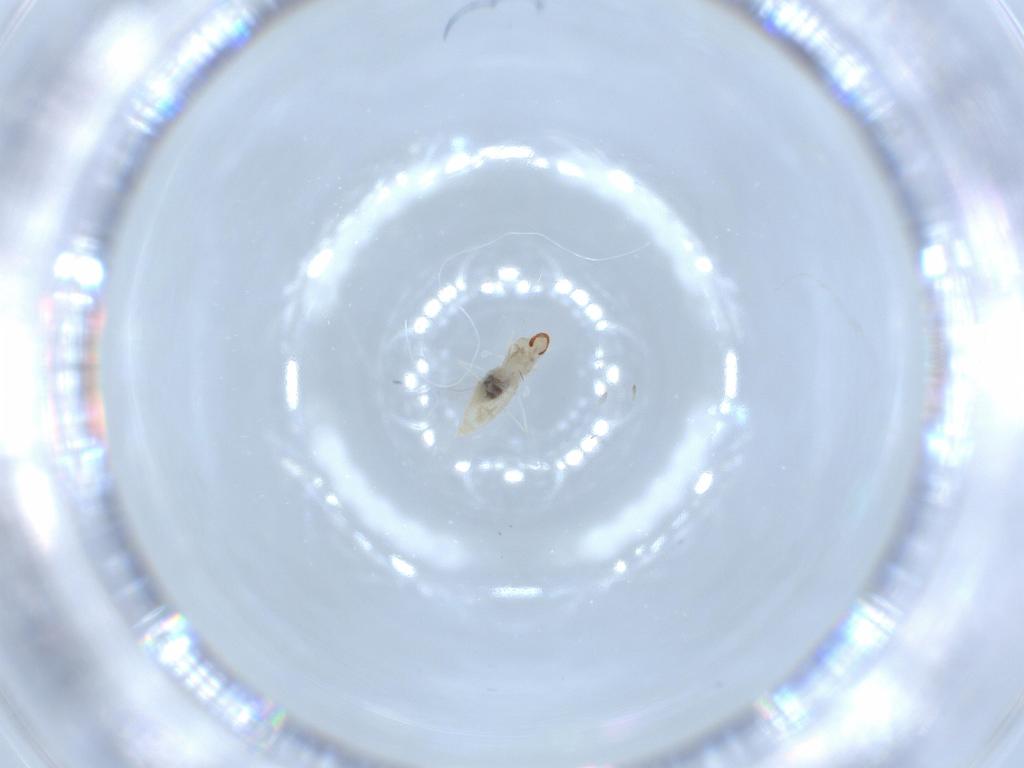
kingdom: Animalia
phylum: Arthropoda
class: Insecta
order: Diptera
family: Cecidomyiidae
